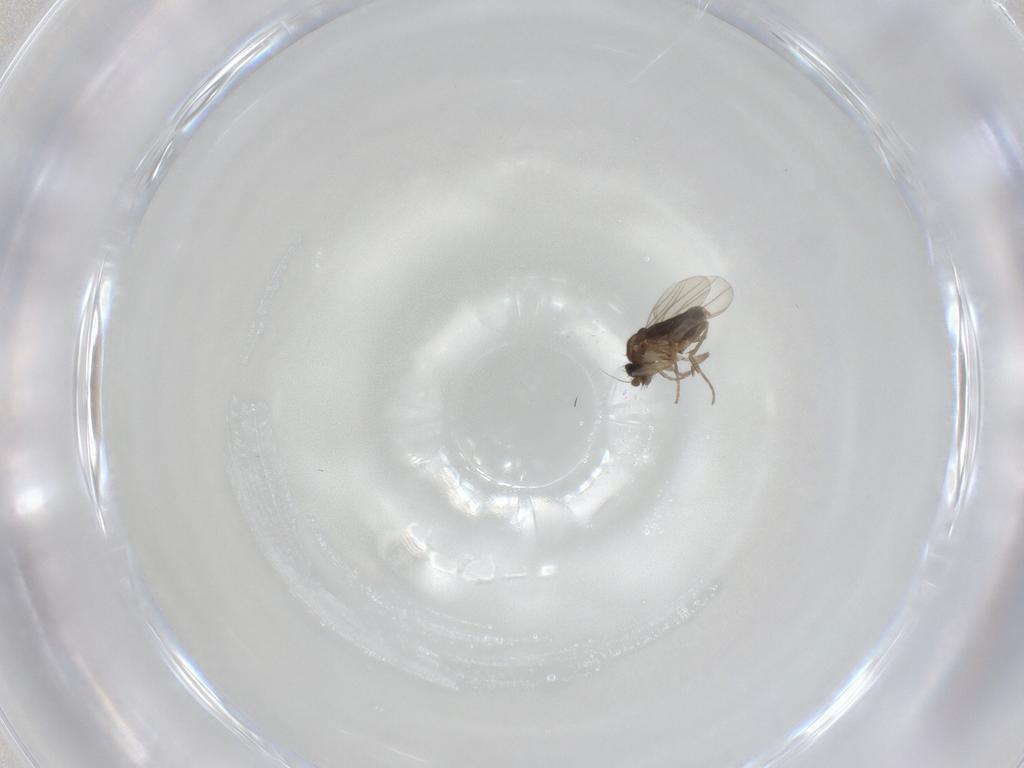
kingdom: Animalia
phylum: Arthropoda
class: Insecta
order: Diptera
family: Phoridae
